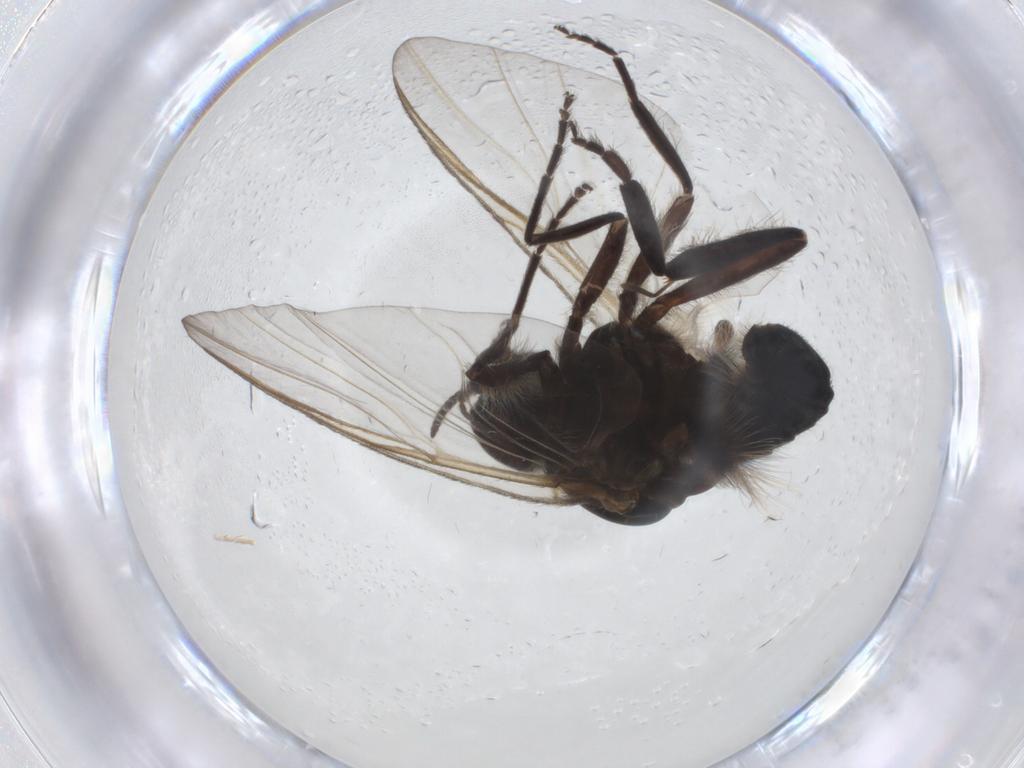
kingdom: Animalia
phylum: Arthropoda
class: Insecta
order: Diptera
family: Simuliidae
